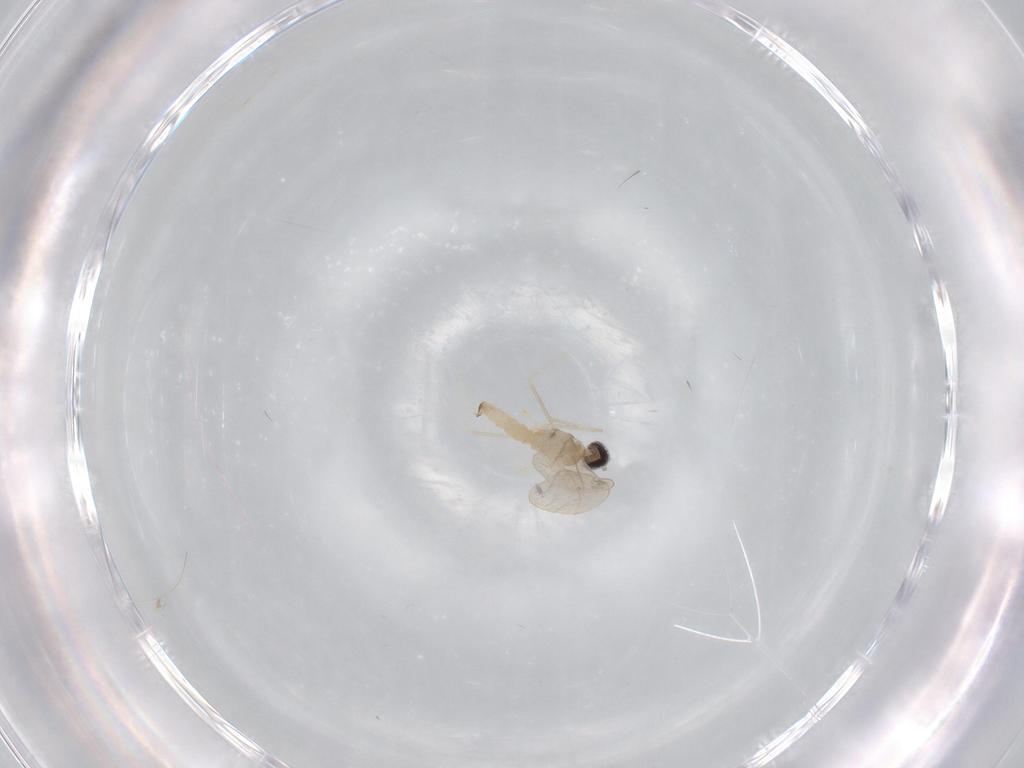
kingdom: Animalia
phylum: Arthropoda
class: Insecta
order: Diptera
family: Cecidomyiidae
